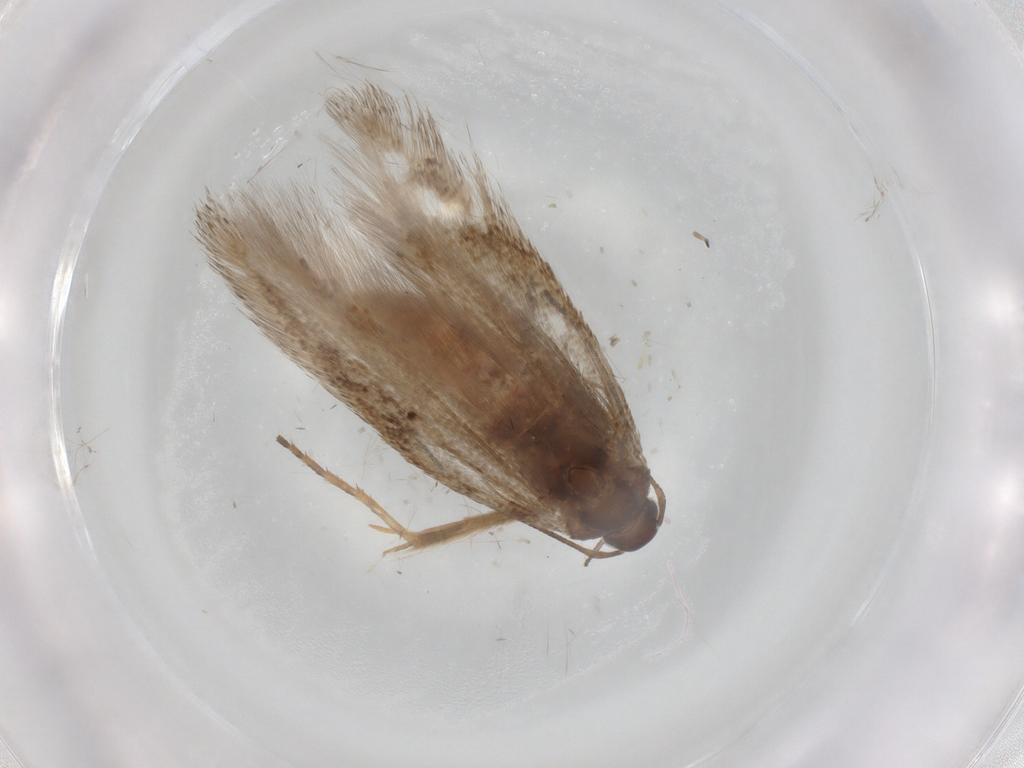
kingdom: Animalia
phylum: Arthropoda
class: Insecta
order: Lepidoptera
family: Gelechiidae
